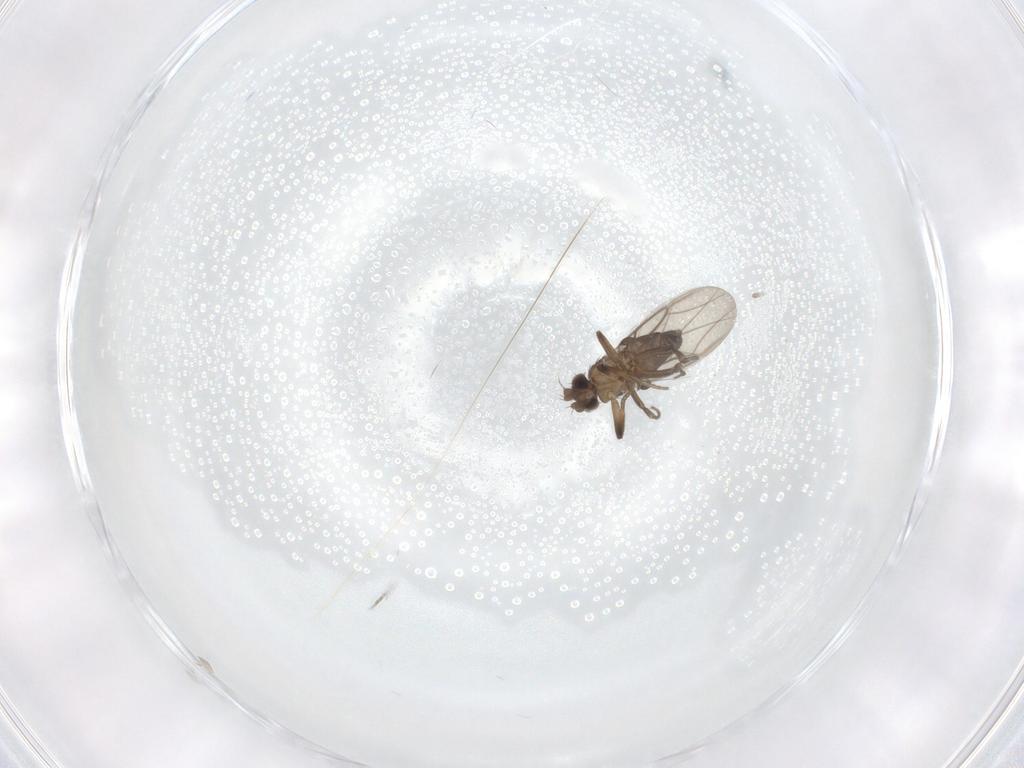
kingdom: Animalia
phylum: Arthropoda
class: Insecta
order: Diptera
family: Phoridae
